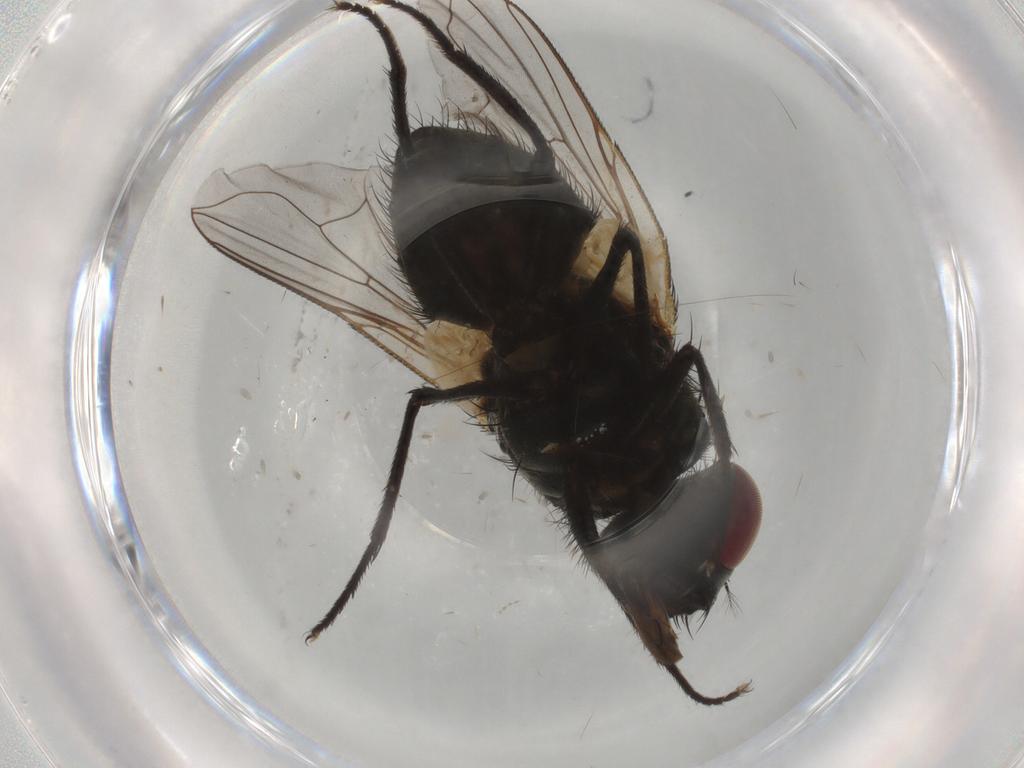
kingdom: Animalia
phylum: Arthropoda
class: Insecta
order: Diptera
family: Muscidae
